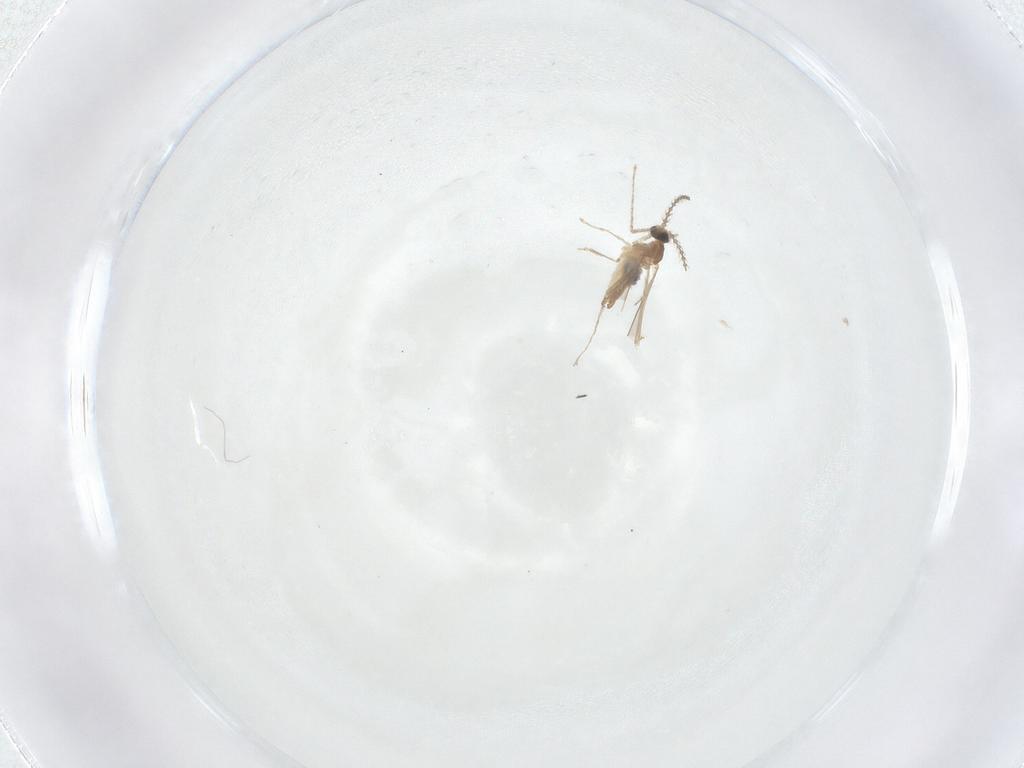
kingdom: Animalia
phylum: Arthropoda
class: Insecta
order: Diptera
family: Cecidomyiidae
